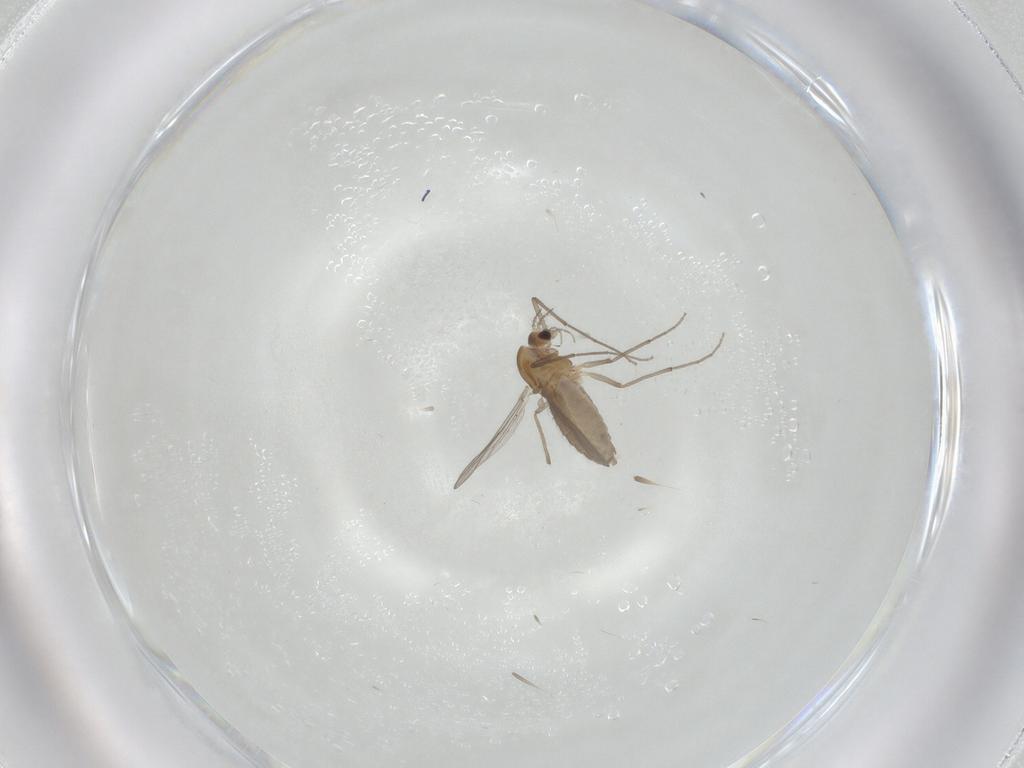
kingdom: Animalia
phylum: Arthropoda
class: Insecta
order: Diptera
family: Chironomidae
